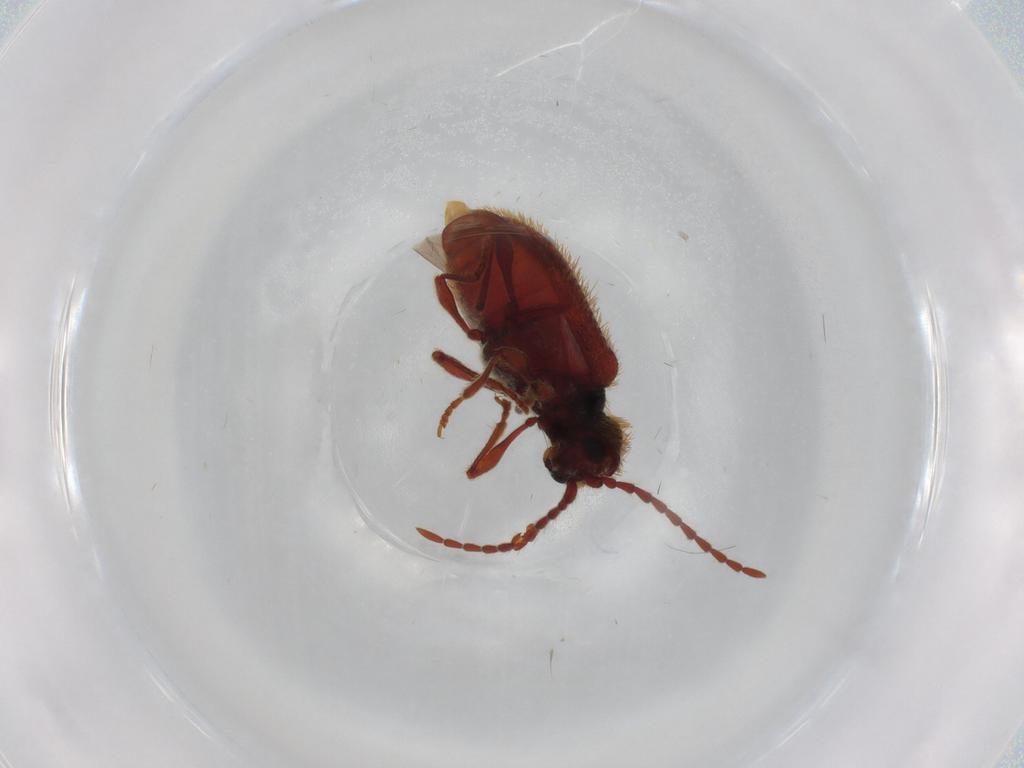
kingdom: Animalia
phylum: Arthropoda
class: Insecta
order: Coleoptera
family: Ptinidae
